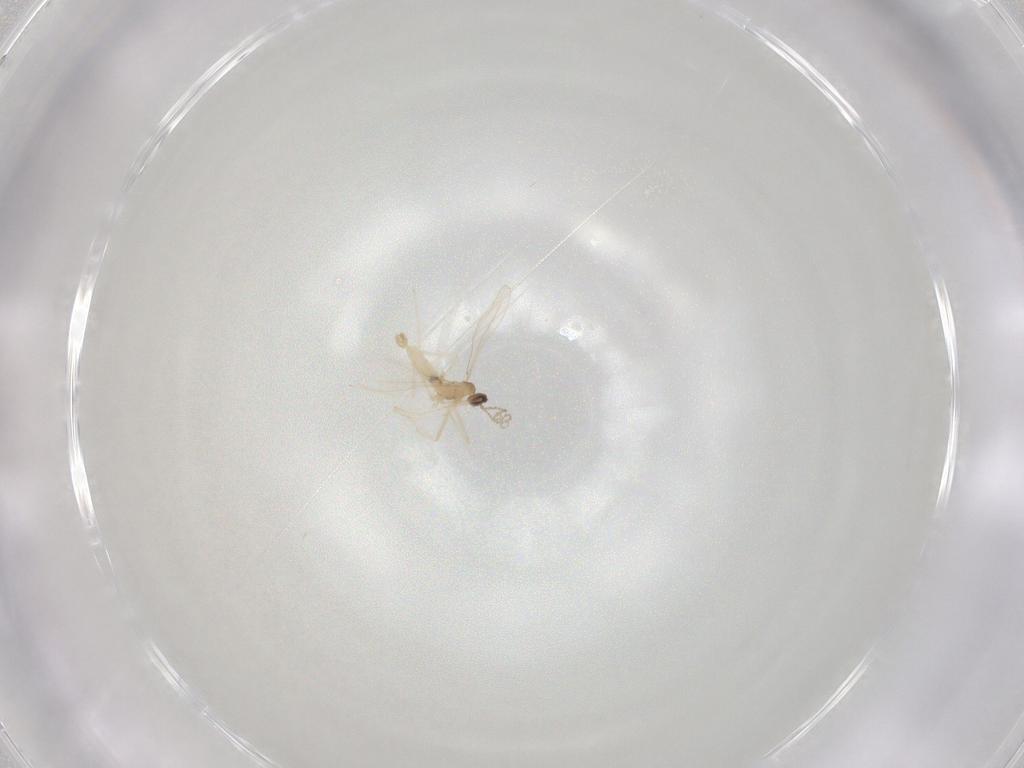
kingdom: Animalia
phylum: Arthropoda
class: Insecta
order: Diptera
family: Cecidomyiidae
